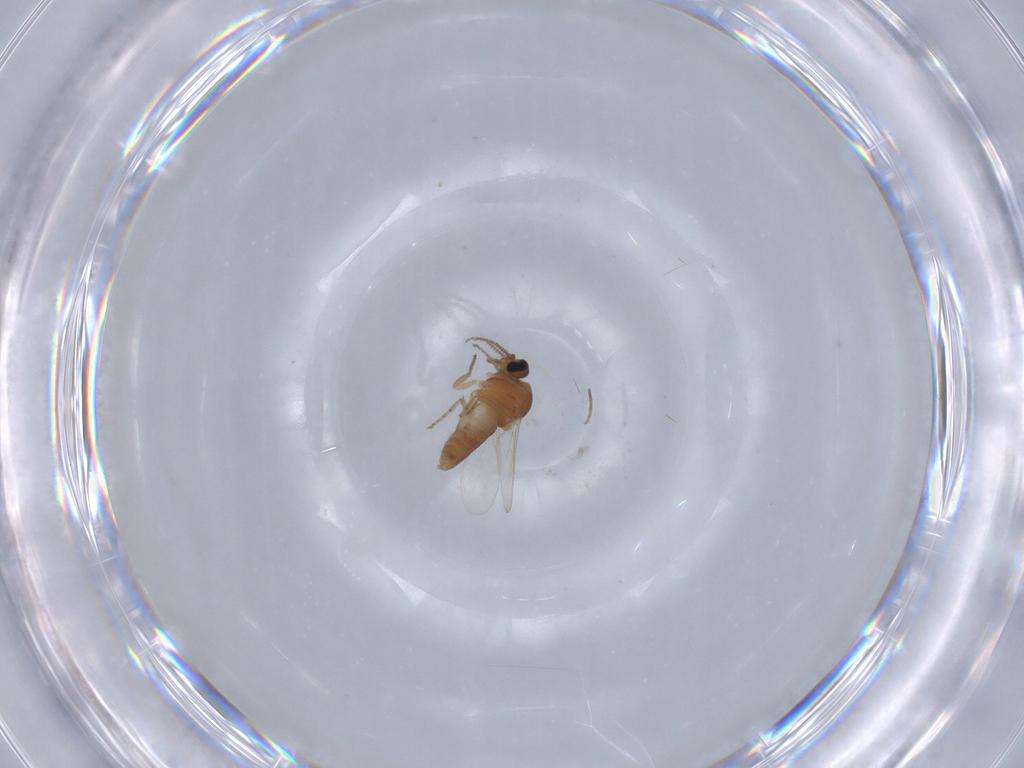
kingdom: Animalia
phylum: Arthropoda
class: Insecta
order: Diptera
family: Ceratopogonidae
